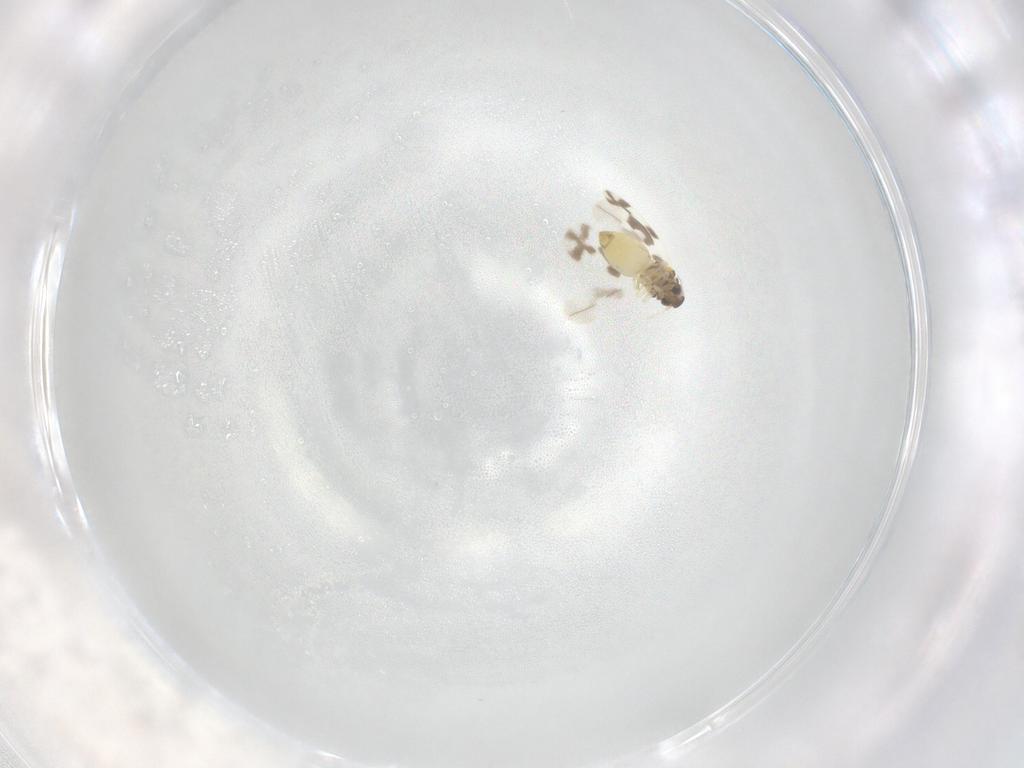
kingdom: Animalia
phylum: Arthropoda
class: Insecta
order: Hemiptera
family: Aleyrodidae
